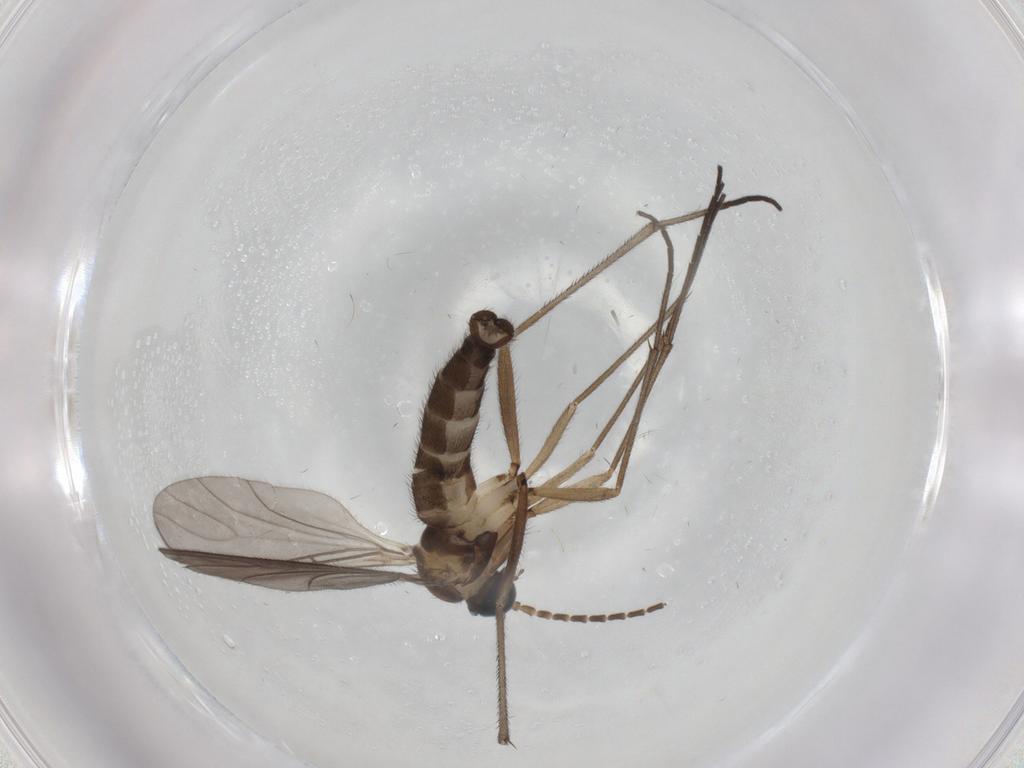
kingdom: Animalia
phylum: Arthropoda
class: Insecta
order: Diptera
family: Sciaridae
